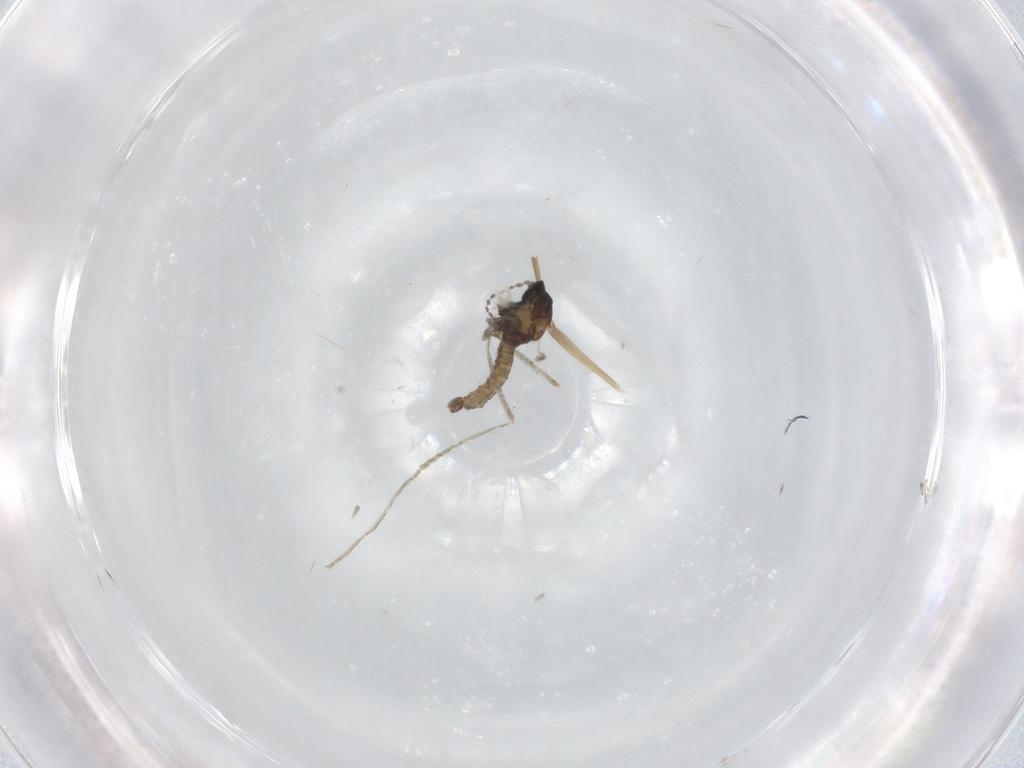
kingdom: Animalia
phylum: Arthropoda
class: Insecta
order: Diptera
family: Cecidomyiidae
